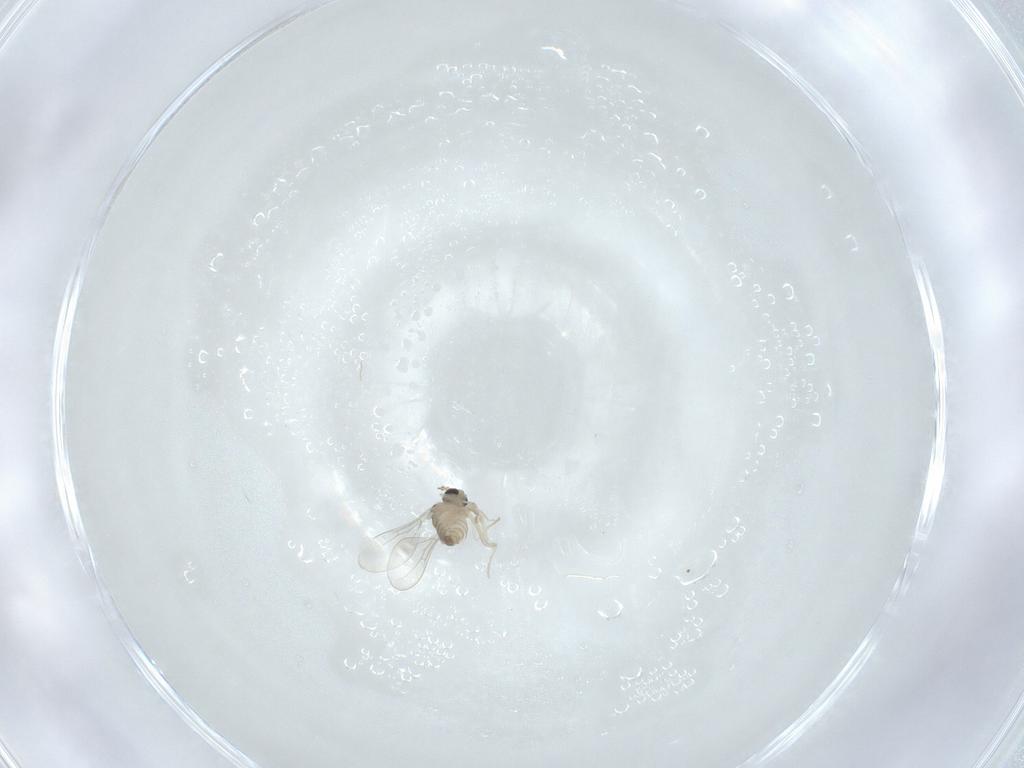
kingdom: Animalia
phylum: Arthropoda
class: Insecta
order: Diptera
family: Cecidomyiidae
